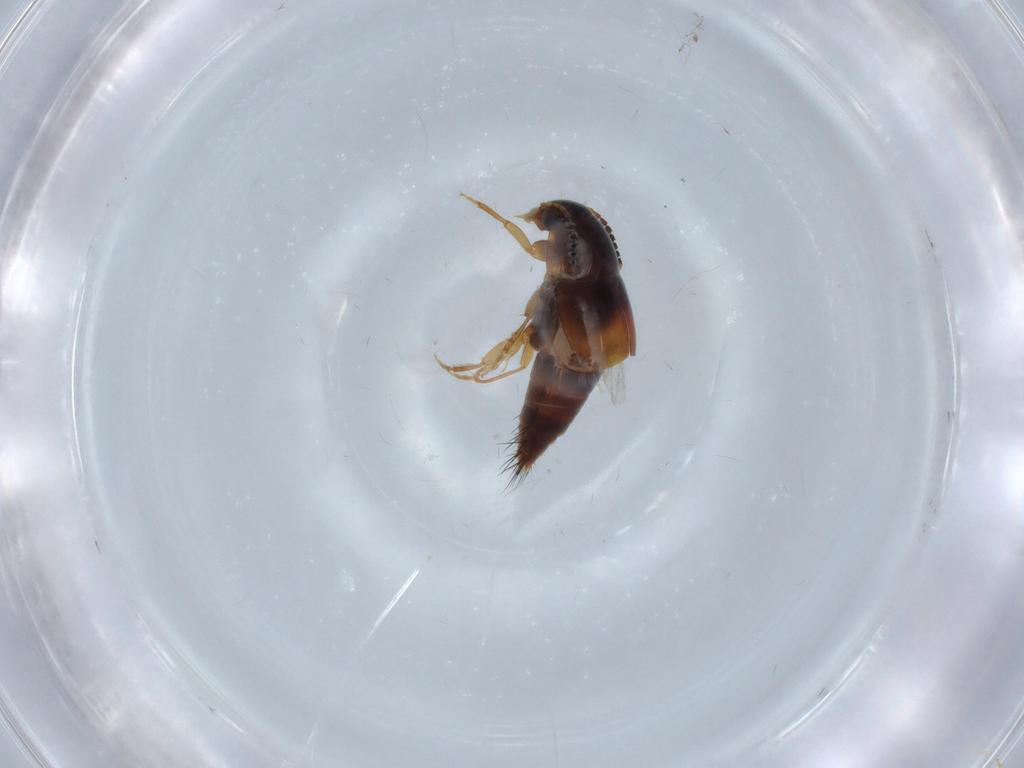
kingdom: Animalia
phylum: Arthropoda
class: Insecta
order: Coleoptera
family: Staphylinidae
